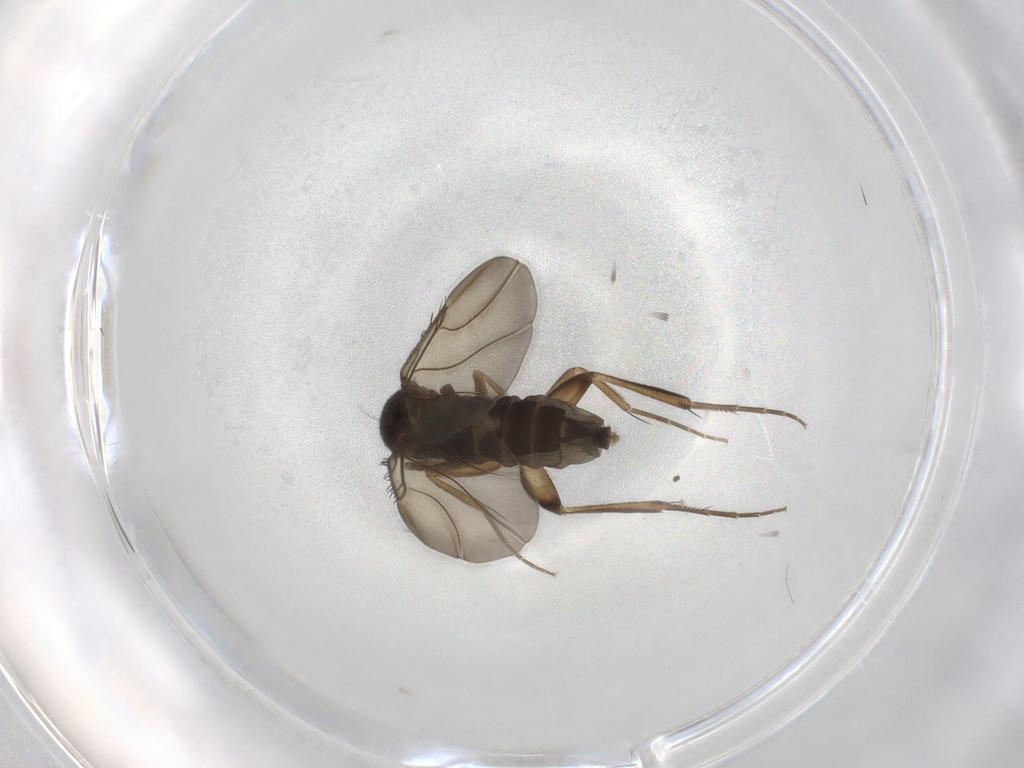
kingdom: Animalia
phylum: Arthropoda
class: Insecta
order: Diptera
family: Phoridae
